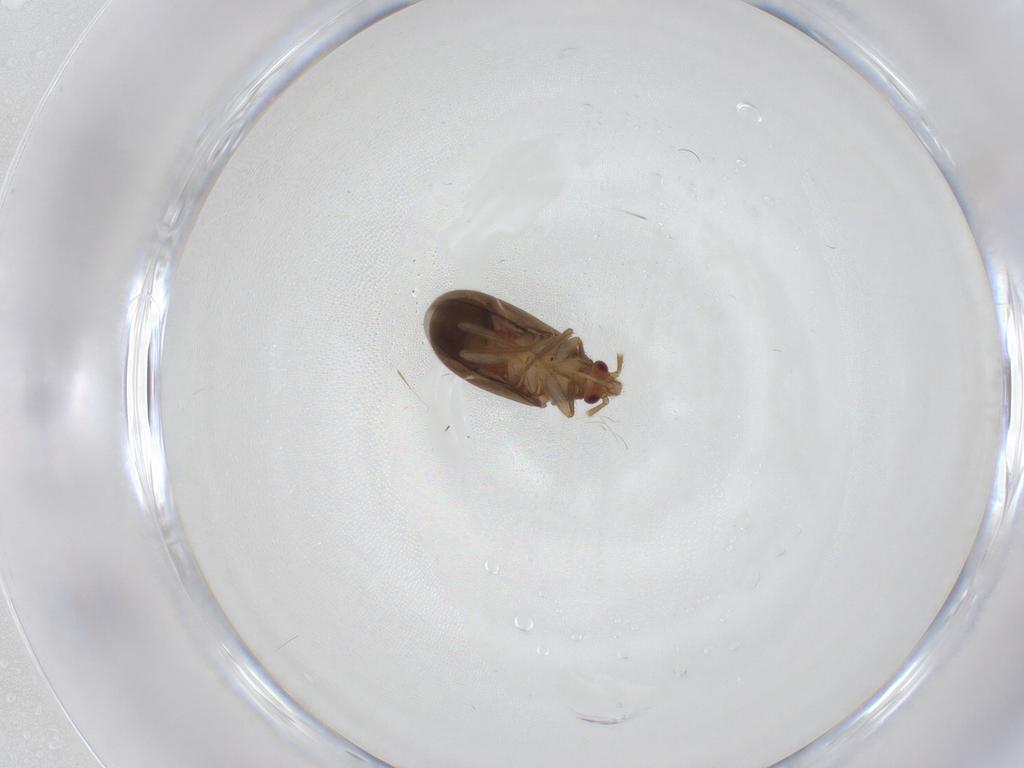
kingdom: Animalia
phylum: Arthropoda
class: Insecta
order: Hemiptera
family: Ceratocombidae
